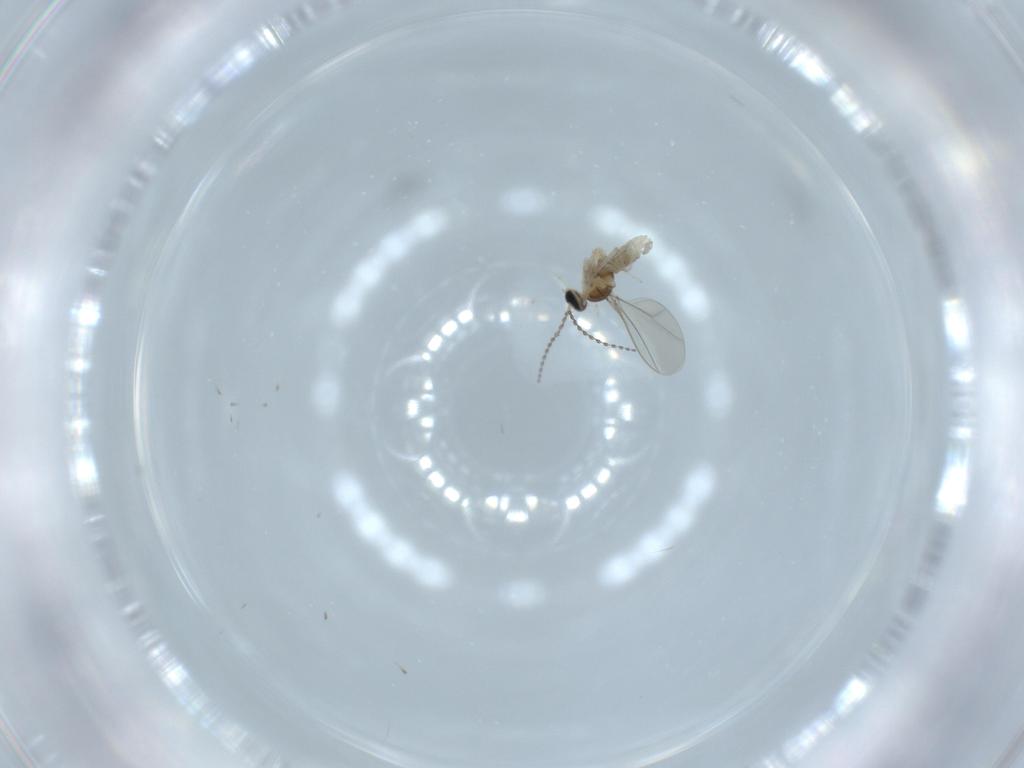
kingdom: Animalia
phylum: Arthropoda
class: Insecta
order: Diptera
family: Cecidomyiidae
